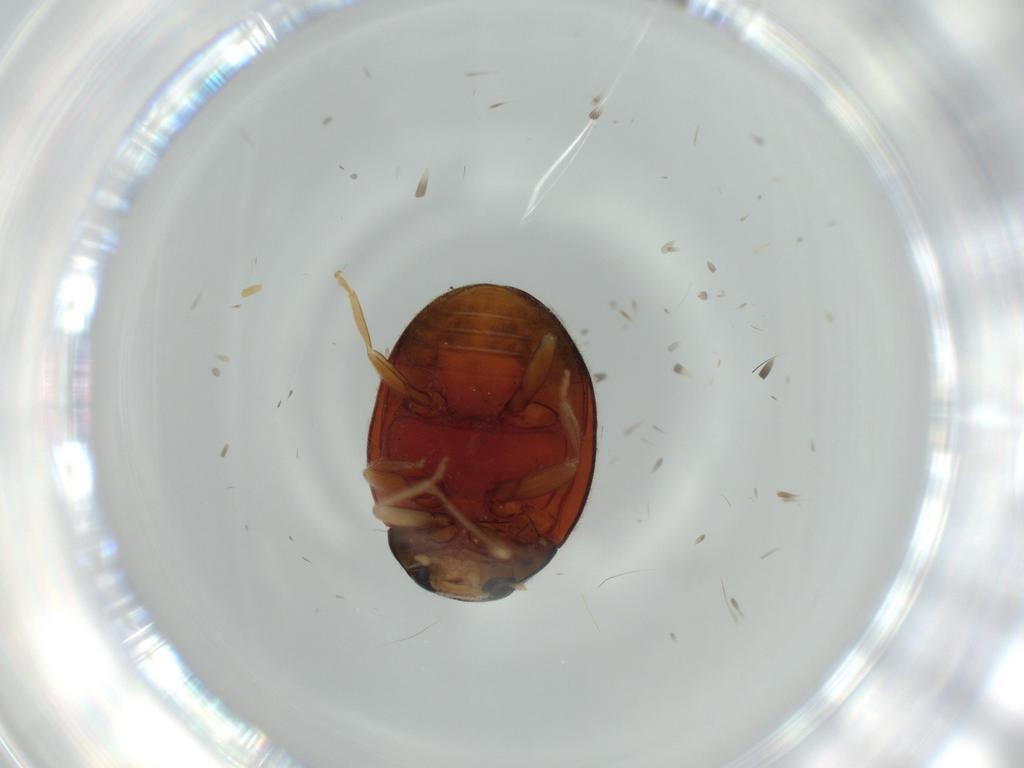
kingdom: Animalia
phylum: Arthropoda
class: Insecta
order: Coleoptera
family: Coccinellidae
